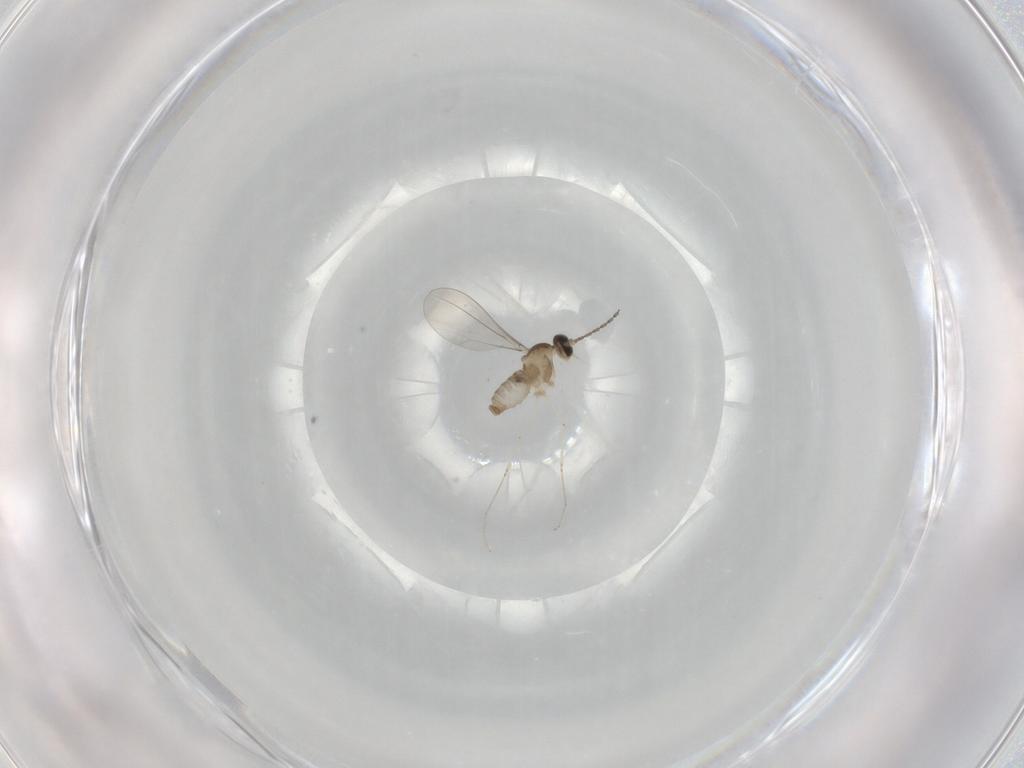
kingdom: Animalia
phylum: Arthropoda
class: Insecta
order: Diptera
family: Cecidomyiidae
